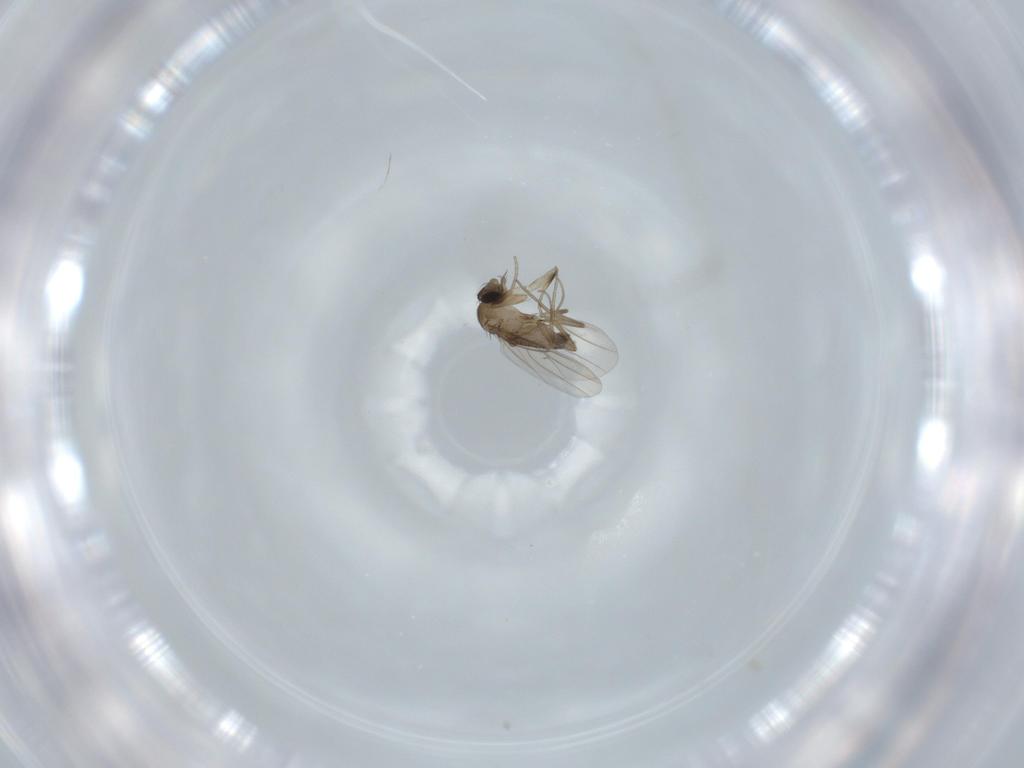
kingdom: Animalia
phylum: Arthropoda
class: Insecta
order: Diptera
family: Phoridae
